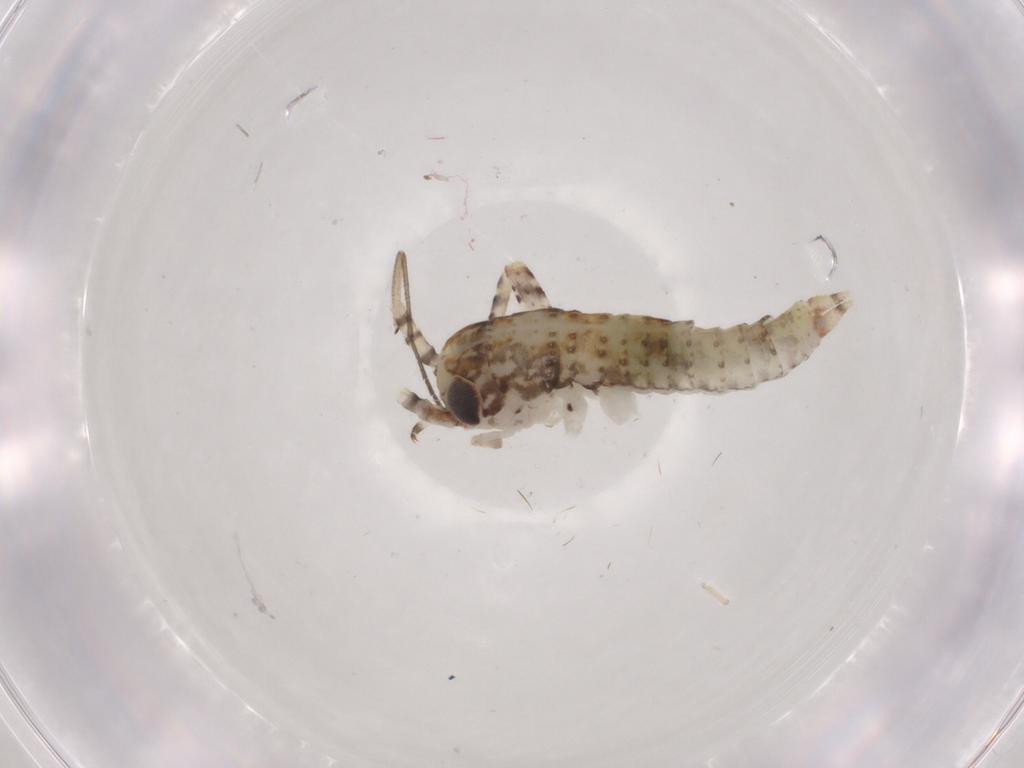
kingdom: Animalia
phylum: Arthropoda
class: Insecta
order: Orthoptera
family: Gryllidae
